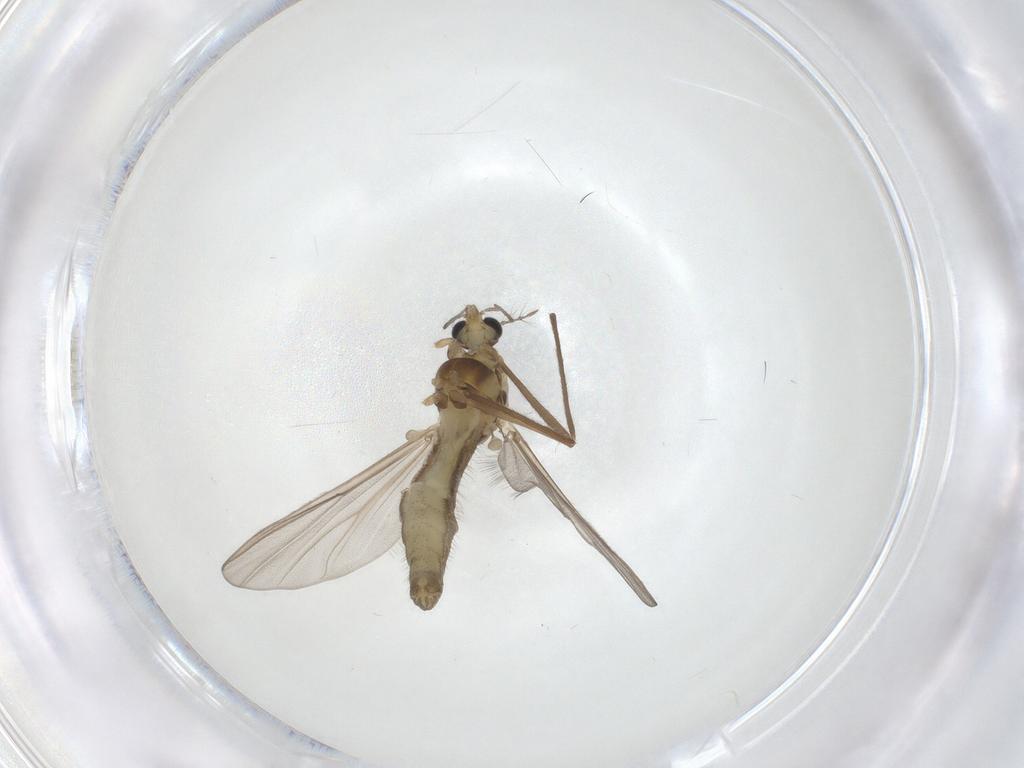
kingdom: Animalia
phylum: Arthropoda
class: Insecta
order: Diptera
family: Chironomidae
